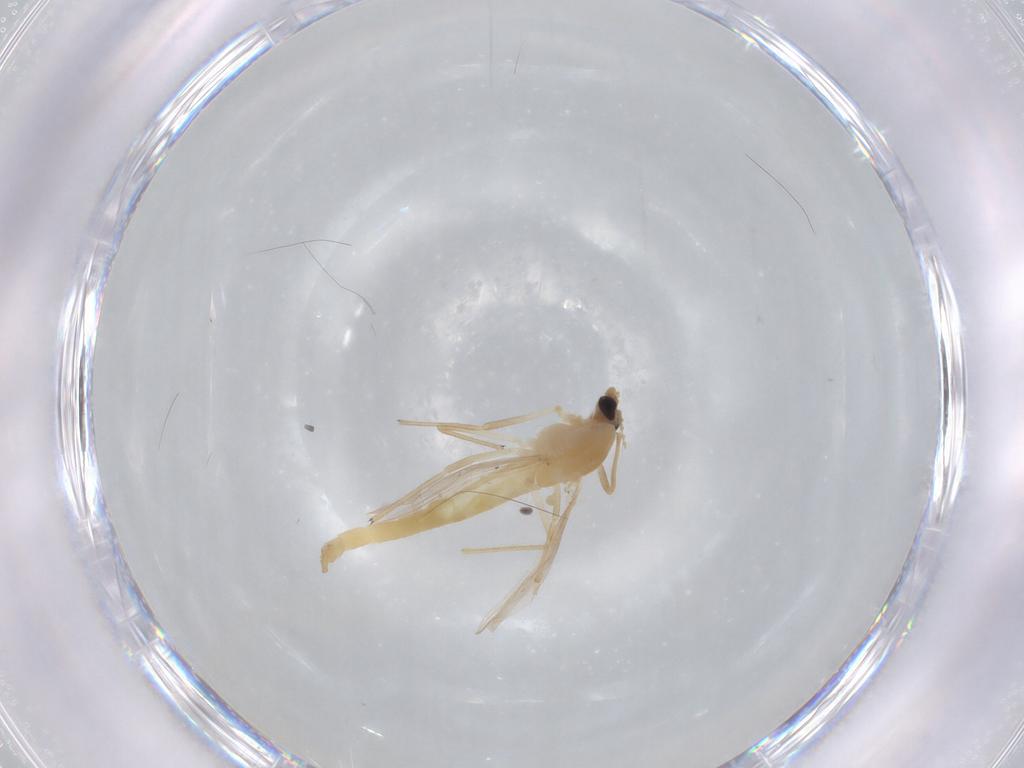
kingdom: Animalia
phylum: Arthropoda
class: Insecta
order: Diptera
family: Chironomidae
